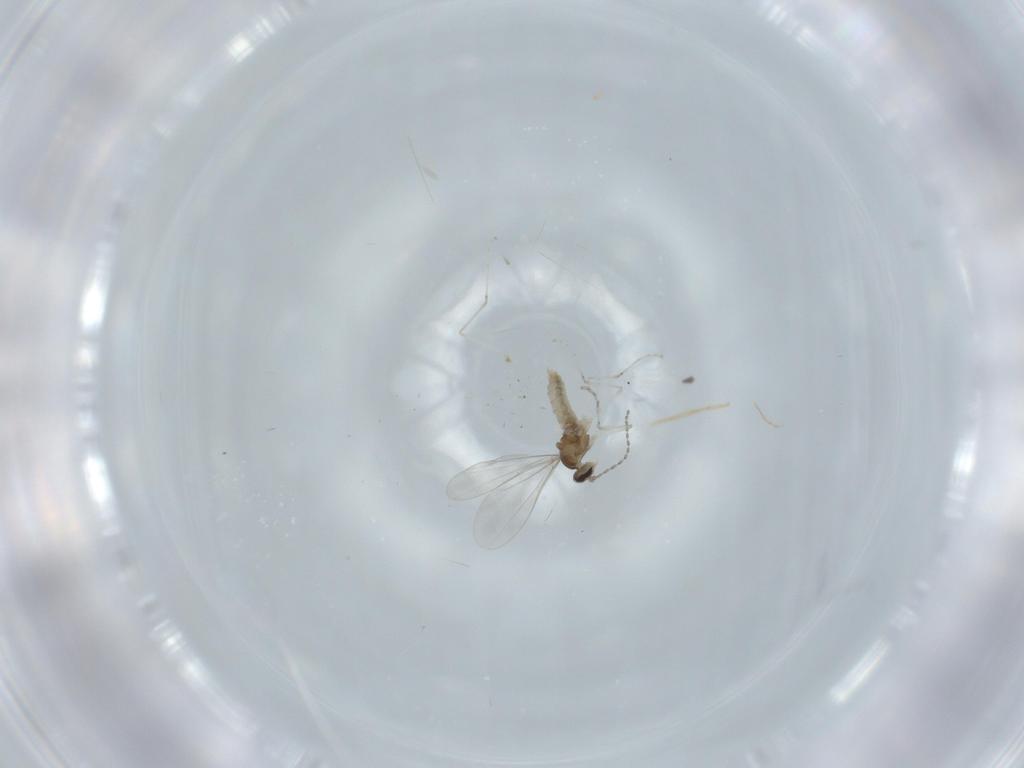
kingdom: Animalia
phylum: Arthropoda
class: Insecta
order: Diptera
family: Cecidomyiidae
